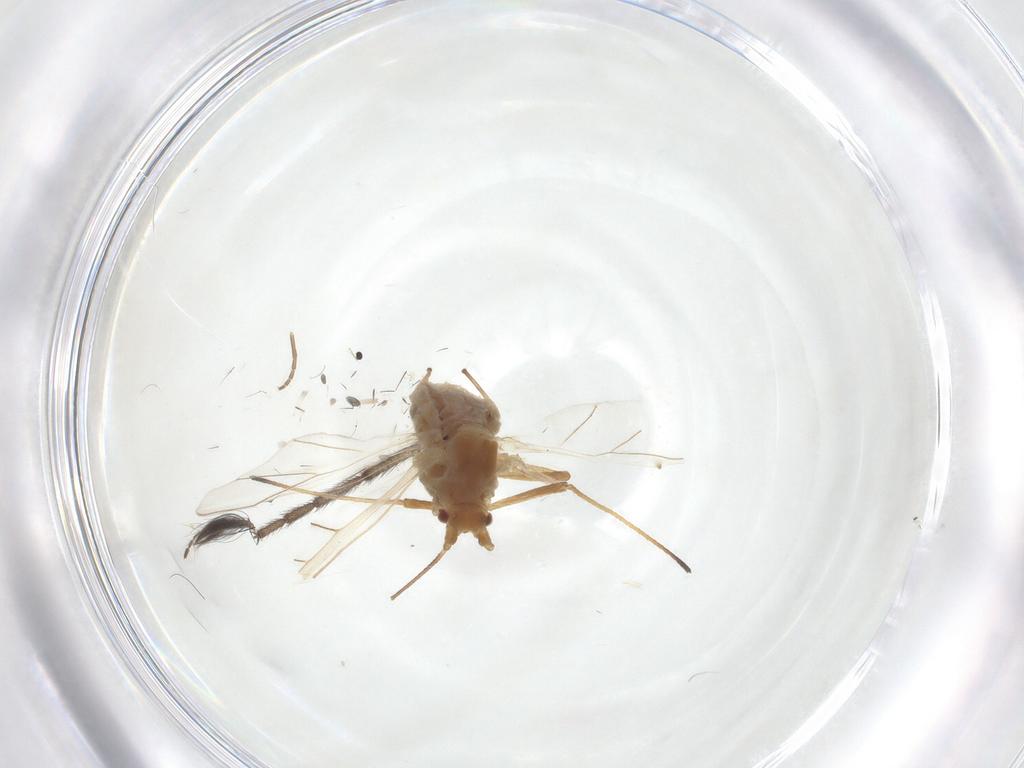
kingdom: Animalia
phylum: Arthropoda
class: Insecta
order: Hemiptera
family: Aphididae
